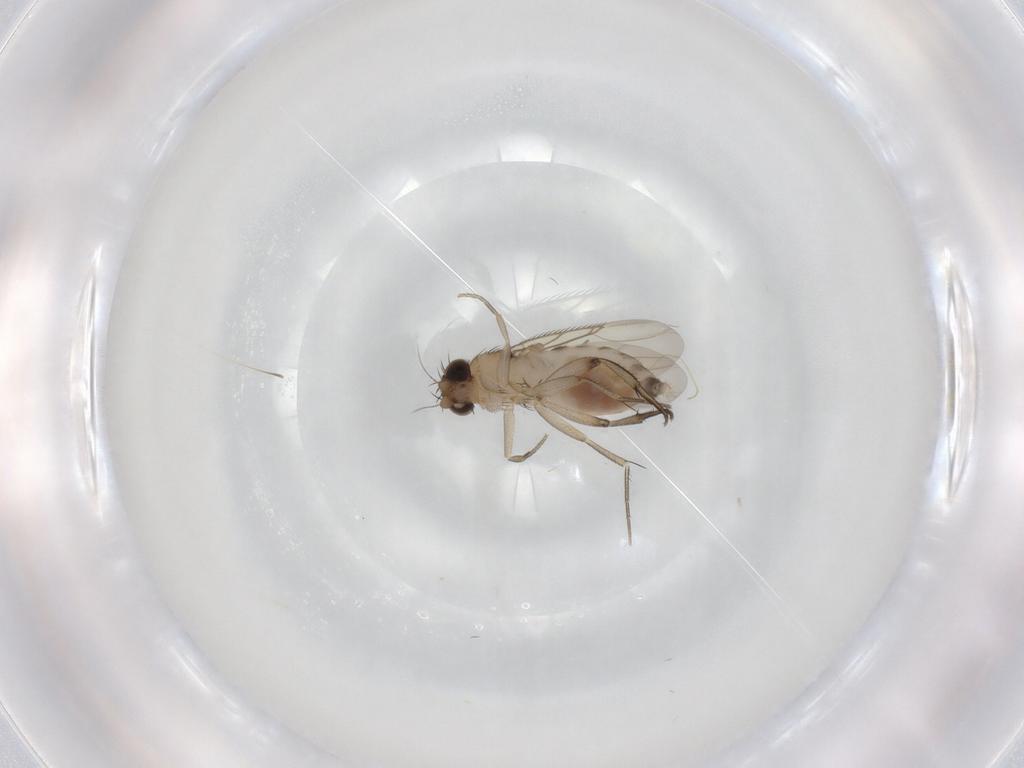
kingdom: Animalia
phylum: Arthropoda
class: Insecta
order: Diptera
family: Phoridae
